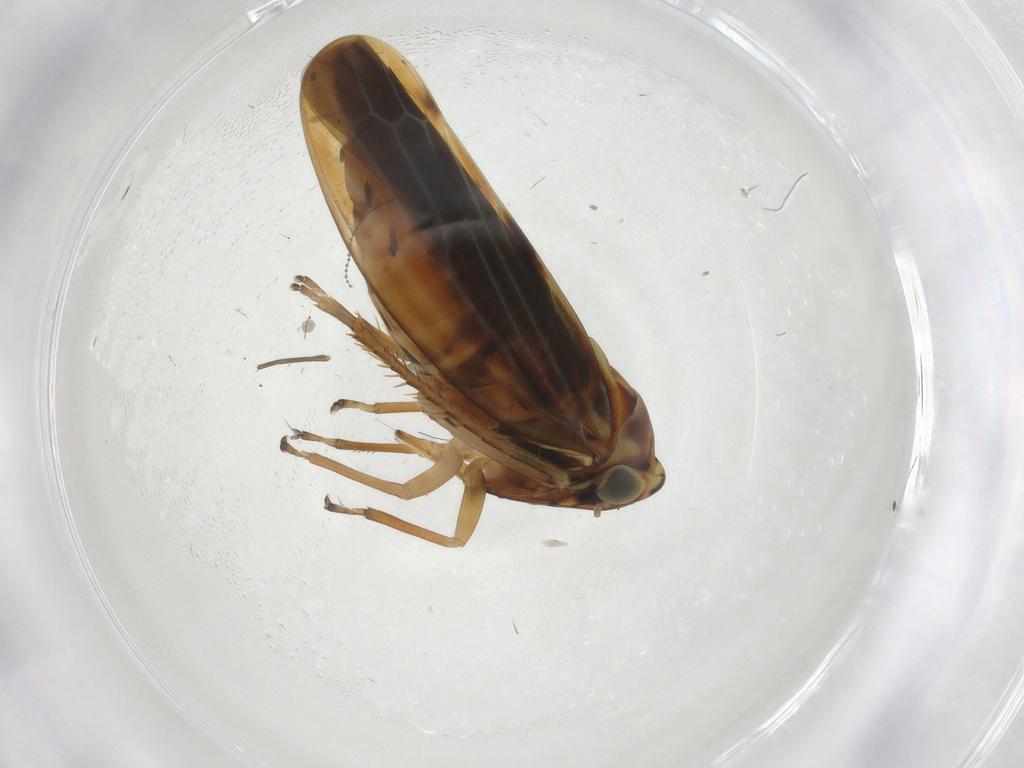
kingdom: Animalia
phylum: Arthropoda
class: Insecta
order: Hemiptera
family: Cicadellidae
